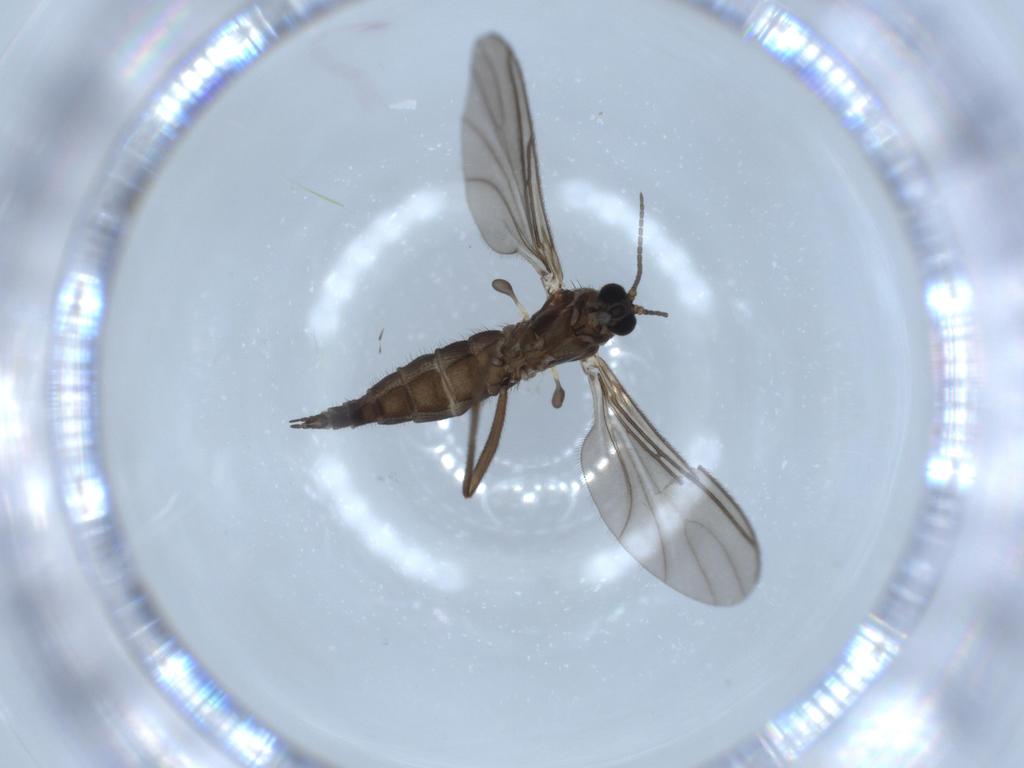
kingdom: Animalia
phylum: Arthropoda
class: Insecta
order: Diptera
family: Sciaridae
